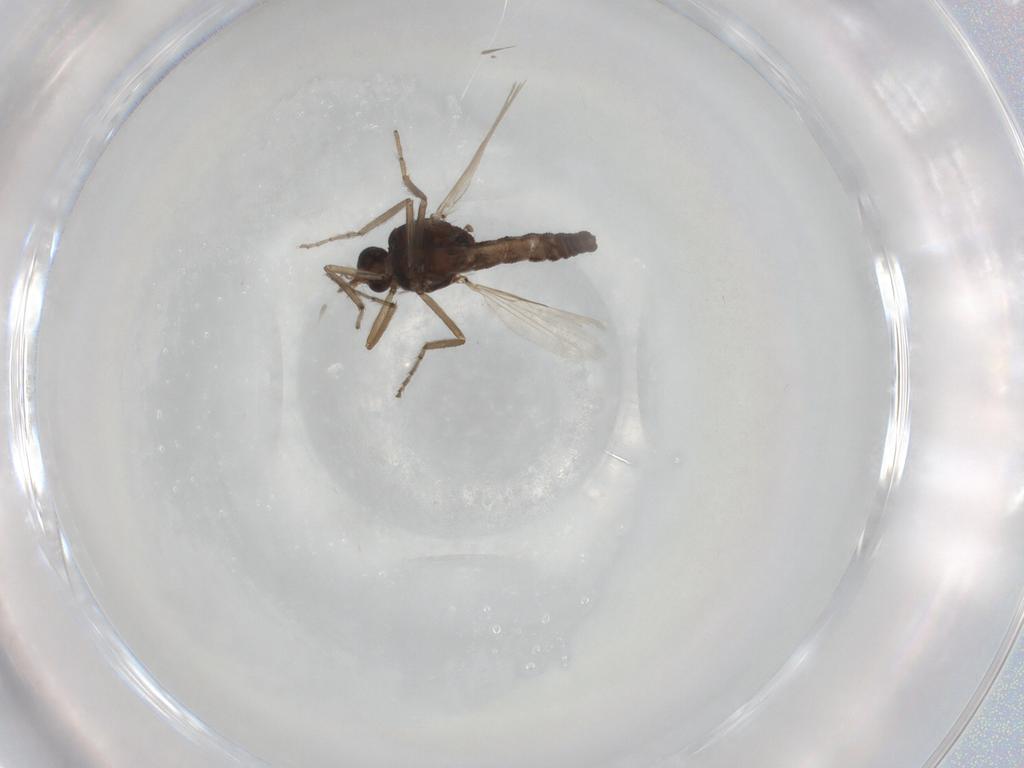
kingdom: Animalia
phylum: Arthropoda
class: Insecta
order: Diptera
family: Ceratopogonidae
